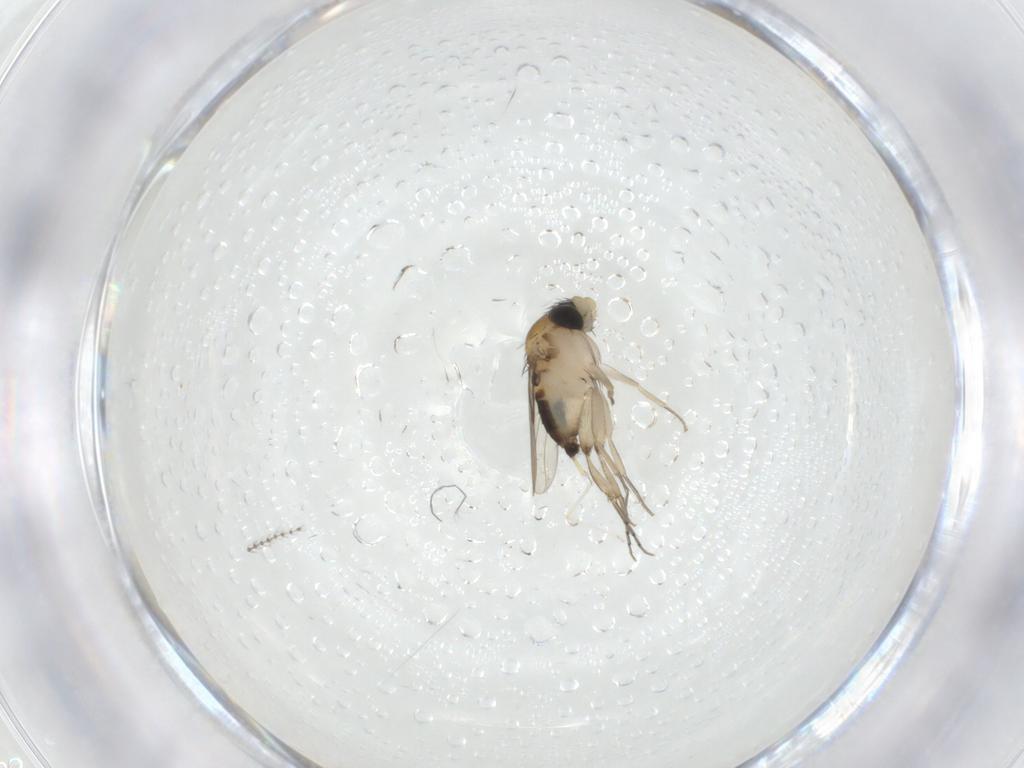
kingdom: Animalia
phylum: Arthropoda
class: Insecta
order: Diptera
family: Phoridae
